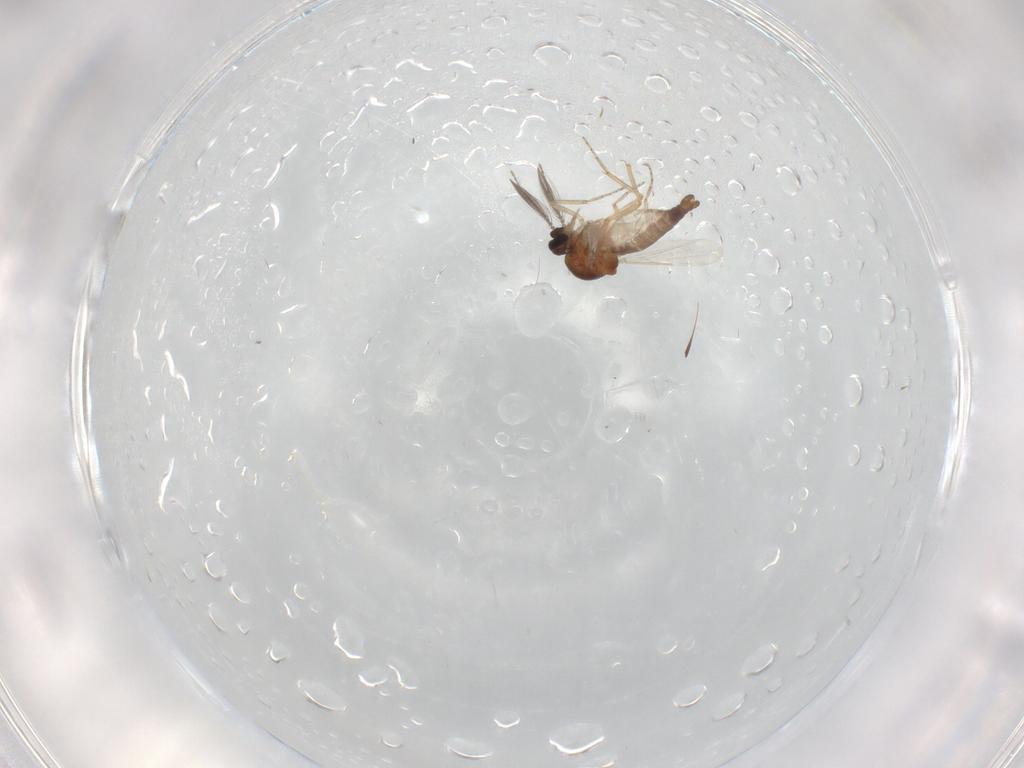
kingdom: Animalia
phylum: Arthropoda
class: Insecta
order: Diptera
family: Ceratopogonidae
